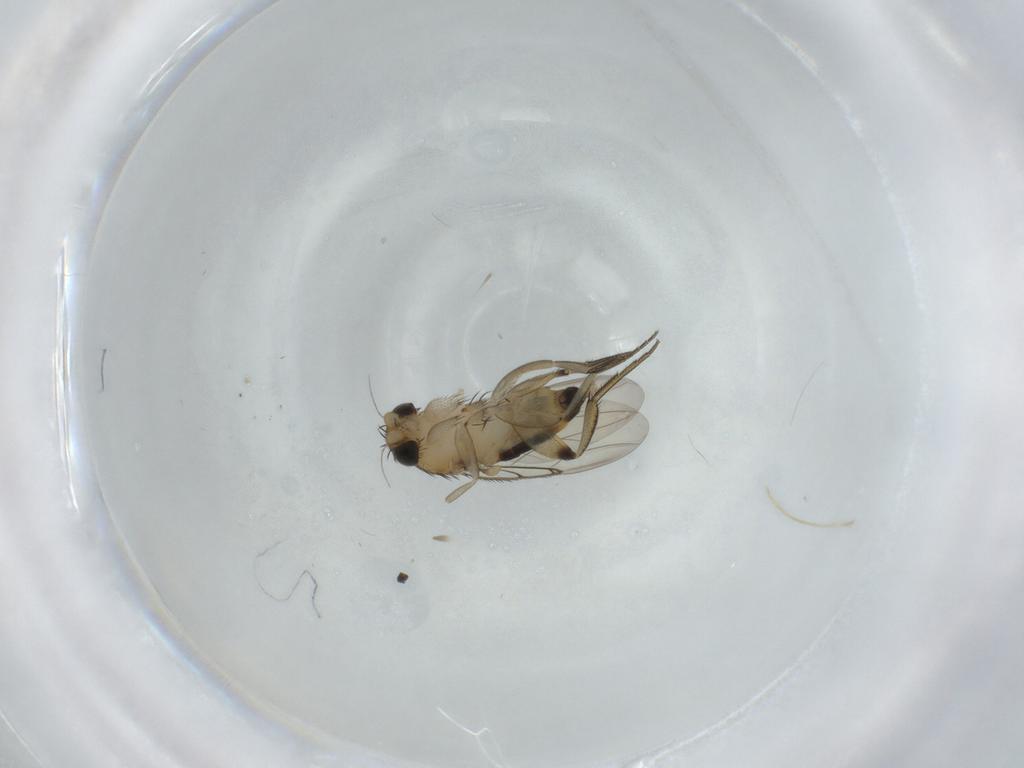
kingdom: Animalia
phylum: Arthropoda
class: Insecta
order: Diptera
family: Phoridae
